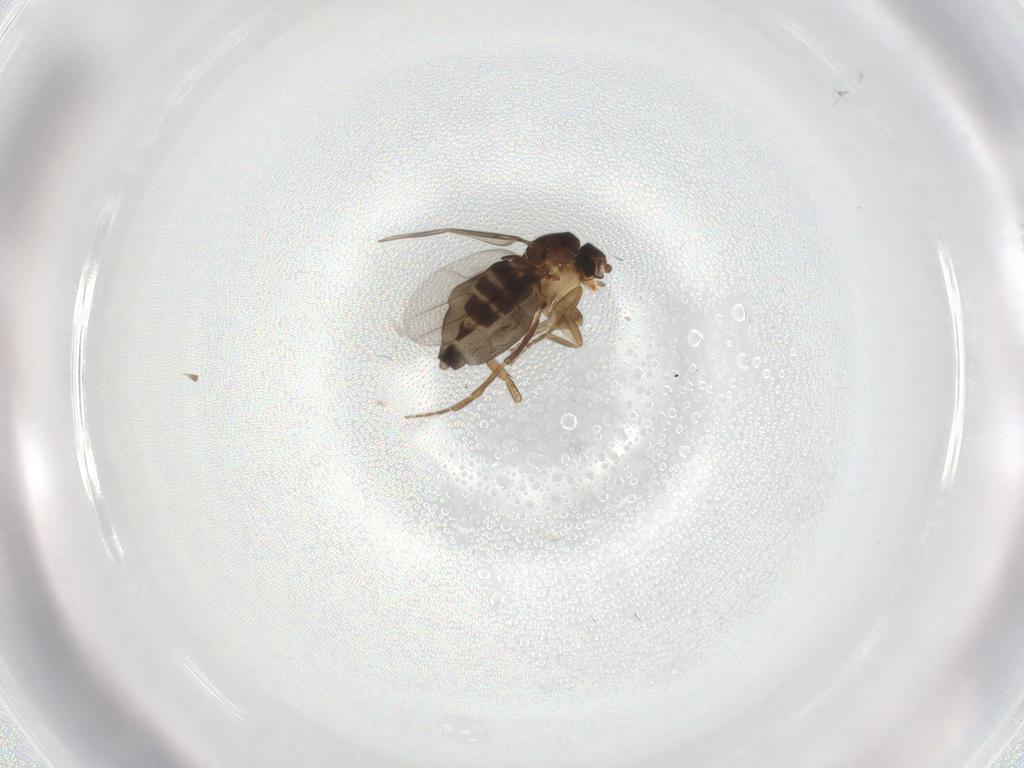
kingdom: Animalia
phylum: Arthropoda
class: Insecta
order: Diptera
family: Phoridae
